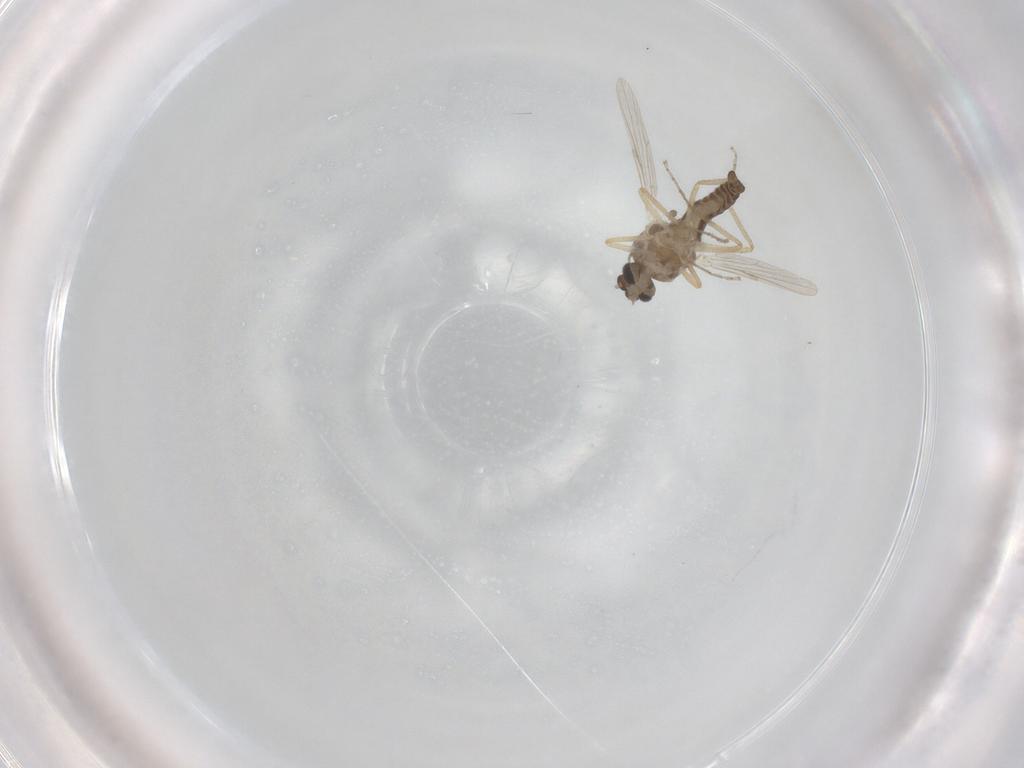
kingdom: Animalia
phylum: Arthropoda
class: Insecta
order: Diptera
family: Ceratopogonidae
